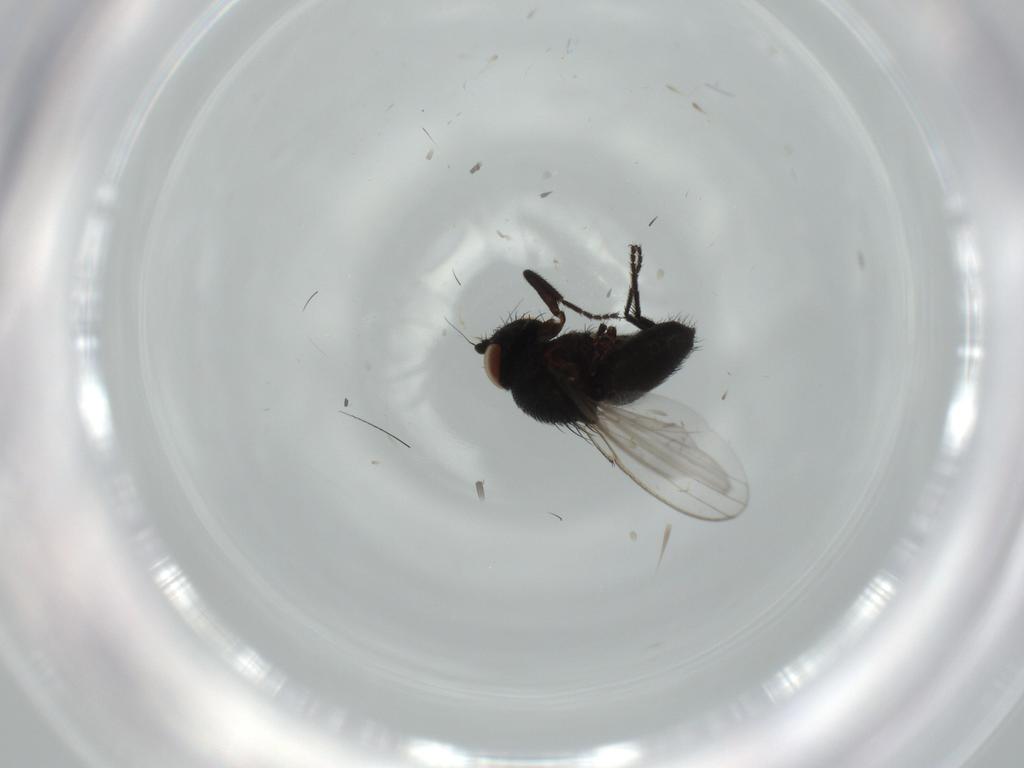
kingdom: Animalia
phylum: Arthropoda
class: Insecta
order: Diptera
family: Milichiidae
